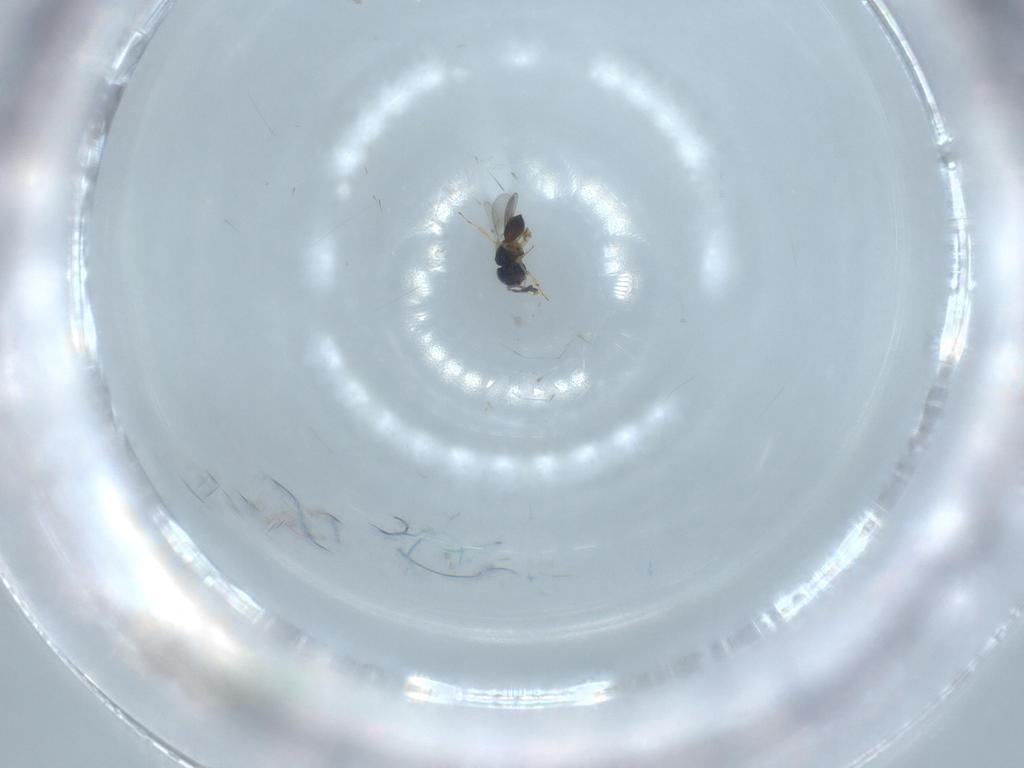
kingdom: Animalia
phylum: Arthropoda
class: Insecta
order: Hymenoptera
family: Scelionidae
